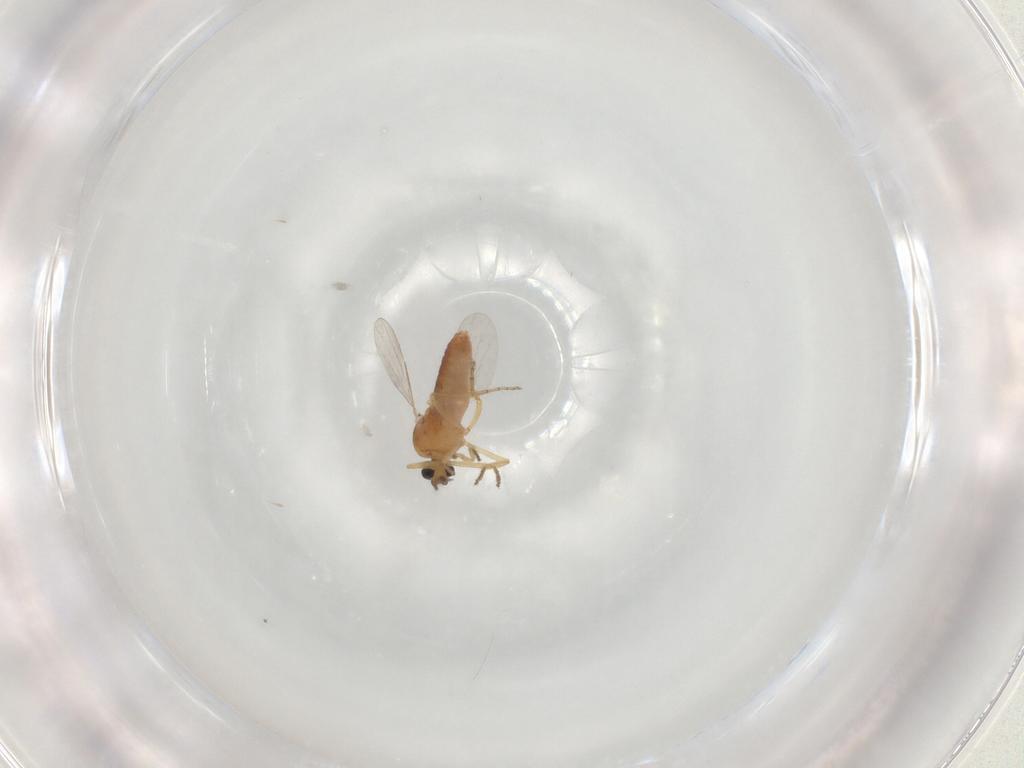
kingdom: Animalia
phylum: Arthropoda
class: Insecta
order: Diptera
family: Ceratopogonidae
